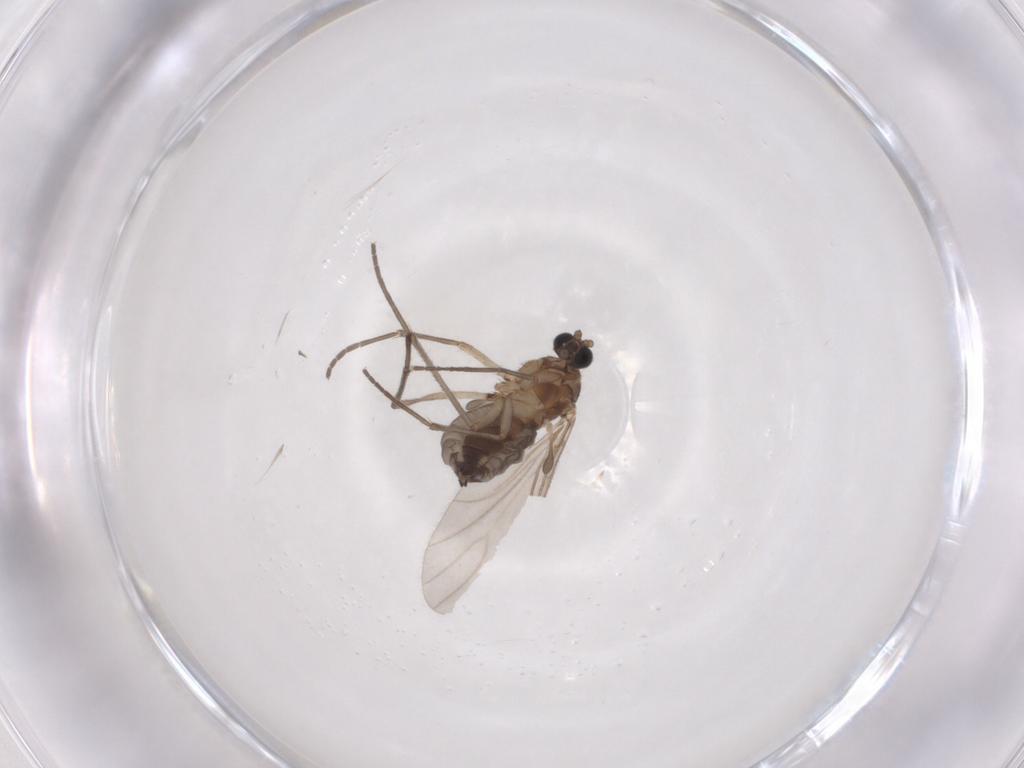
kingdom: Animalia
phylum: Arthropoda
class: Insecta
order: Diptera
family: Sciaridae
